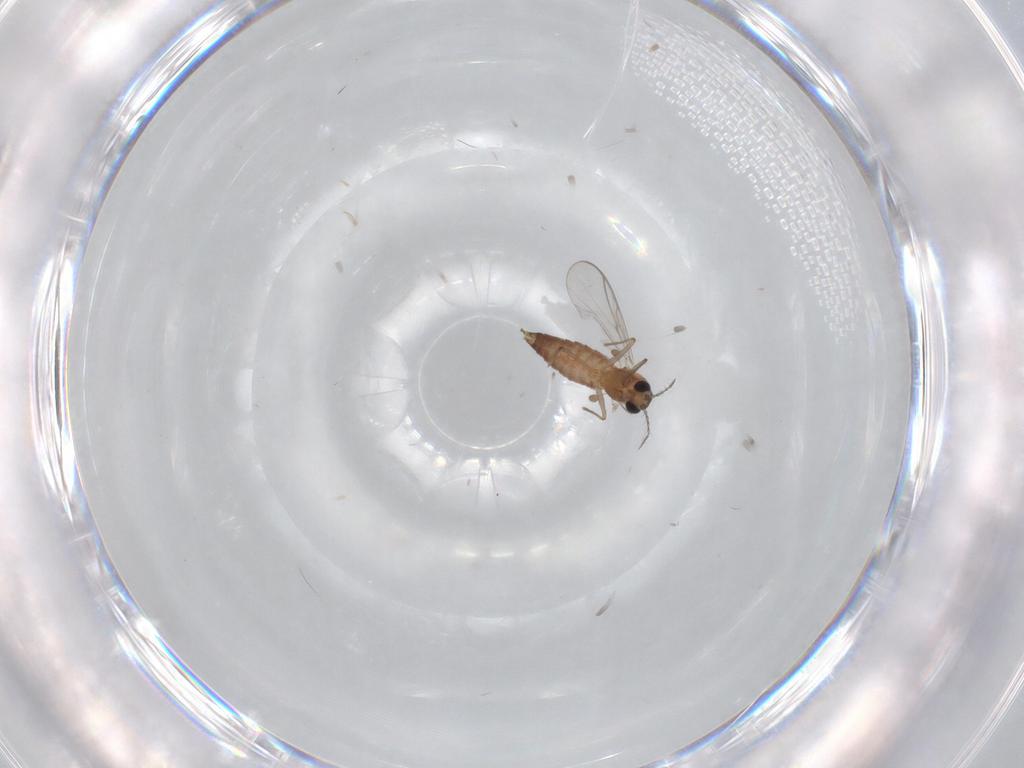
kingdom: Animalia
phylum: Arthropoda
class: Insecta
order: Diptera
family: Chironomidae
